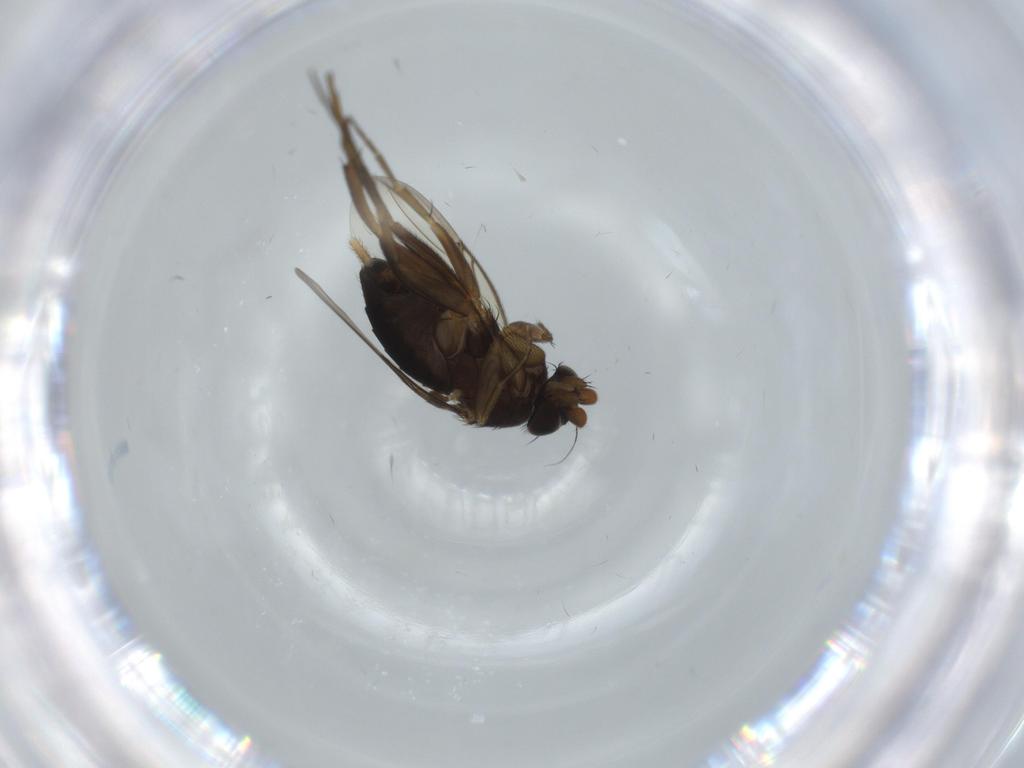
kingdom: Animalia
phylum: Arthropoda
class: Insecta
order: Diptera
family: Phoridae
